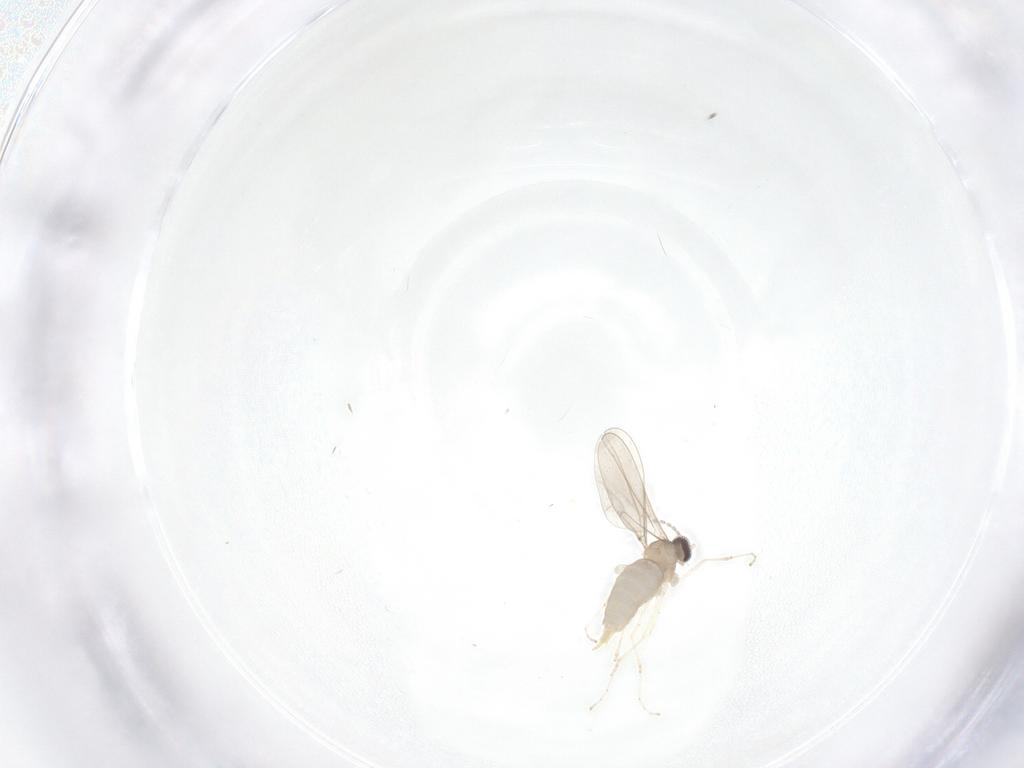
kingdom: Animalia
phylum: Arthropoda
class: Insecta
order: Diptera
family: Cecidomyiidae
